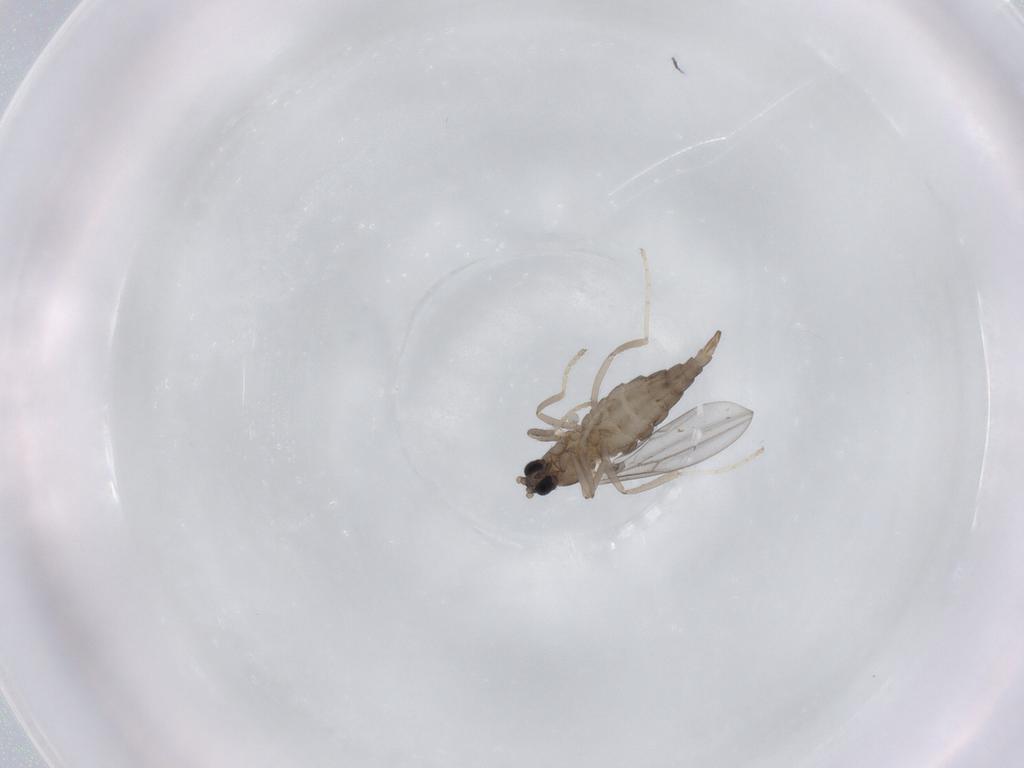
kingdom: Animalia
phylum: Arthropoda
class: Insecta
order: Diptera
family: Cecidomyiidae
